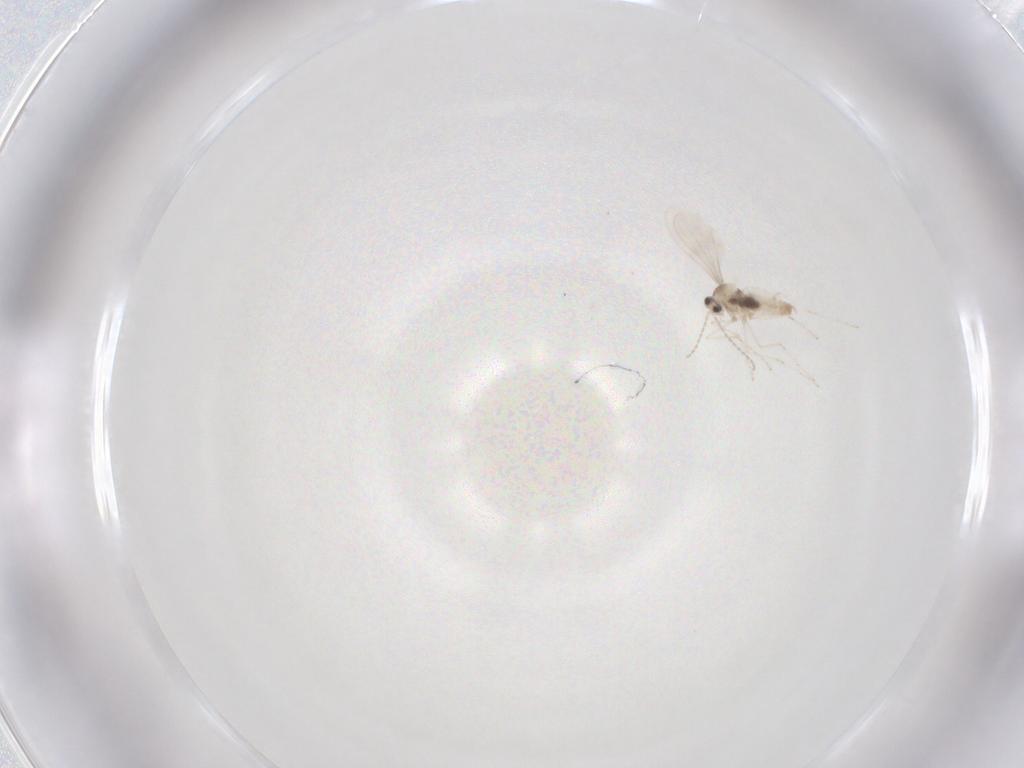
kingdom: Animalia
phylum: Arthropoda
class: Insecta
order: Diptera
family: Cecidomyiidae
